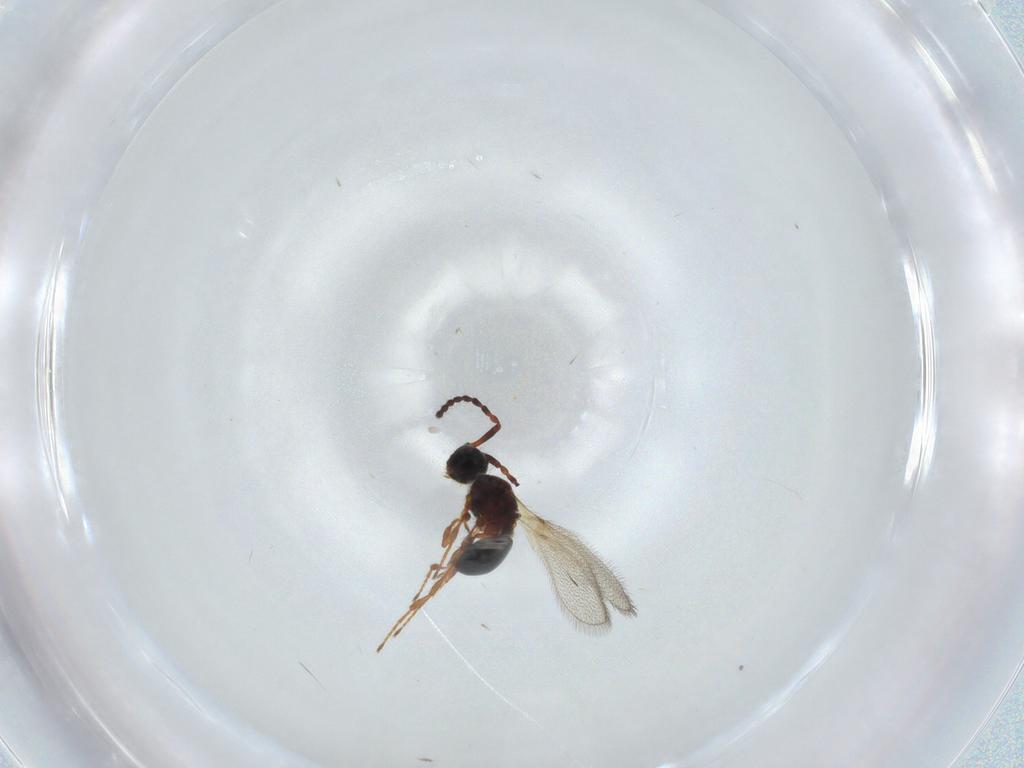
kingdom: Animalia
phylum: Arthropoda
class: Insecta
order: Hymenoptera
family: Diapriidae
